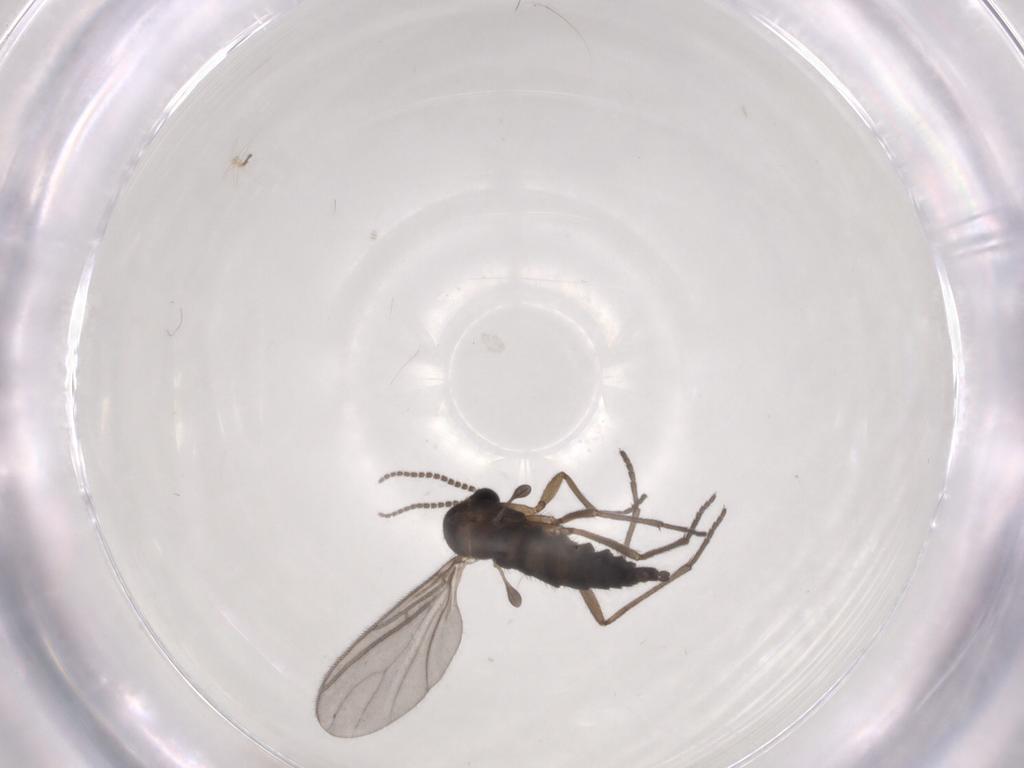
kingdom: Animalia
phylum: Arthropoda
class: Insecta
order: Diptera
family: Sciaridae
